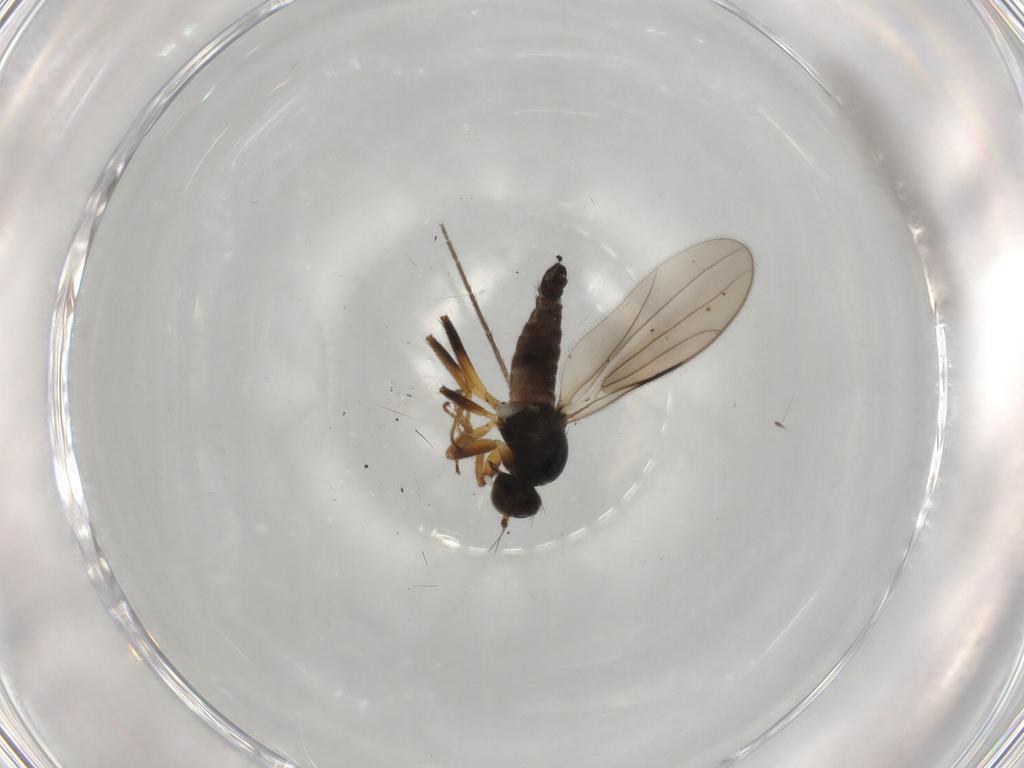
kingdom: Animalia
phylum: Arthropoda
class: Insecta
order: Diptera
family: Hybotidae
